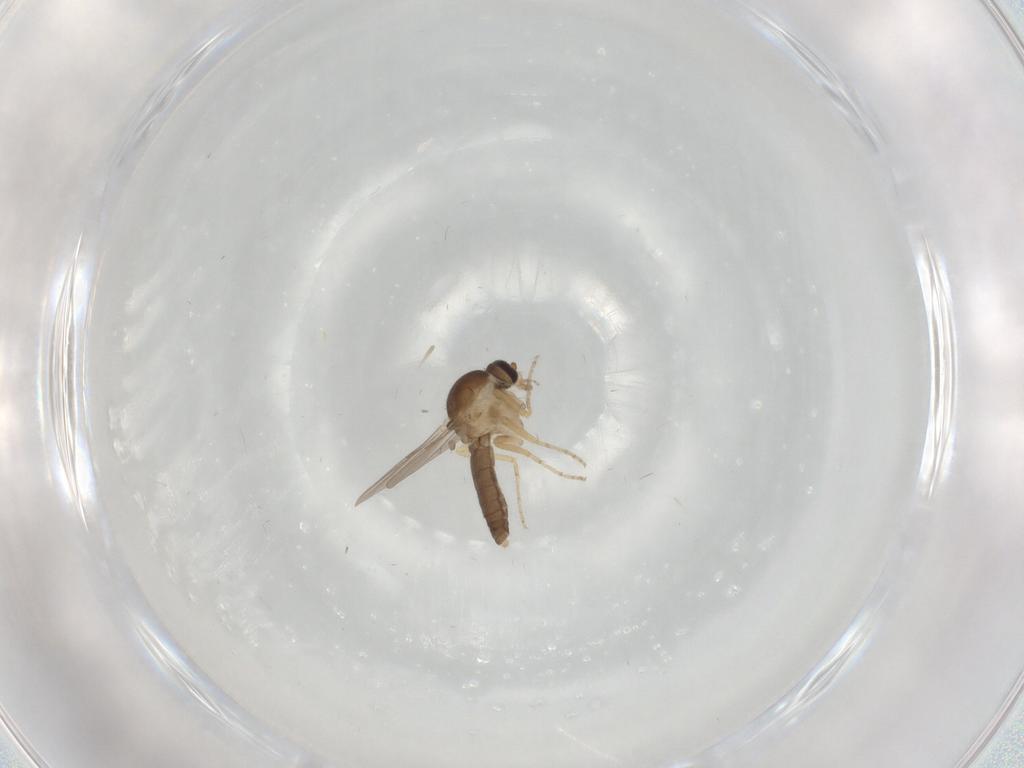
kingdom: Animalia
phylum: Arthropoda
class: Insecta
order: Diptera
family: Ceratopogonidae
